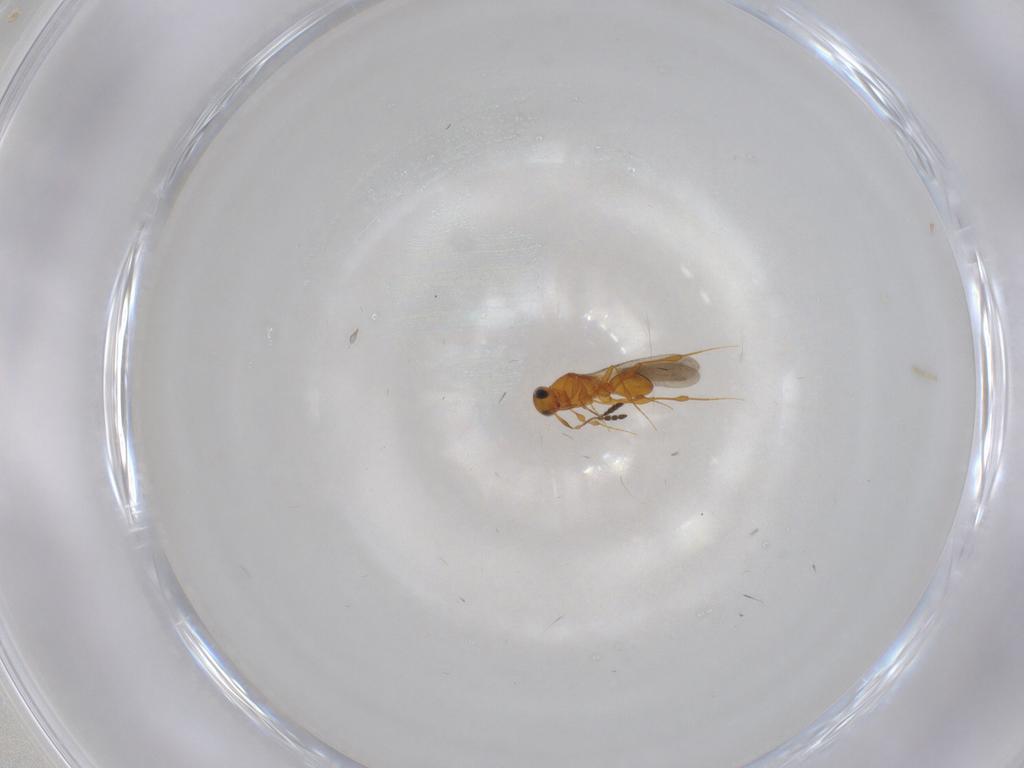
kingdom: Animalia
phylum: Arthropoda
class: Insecta
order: Hymenoptera
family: Platygastridae
